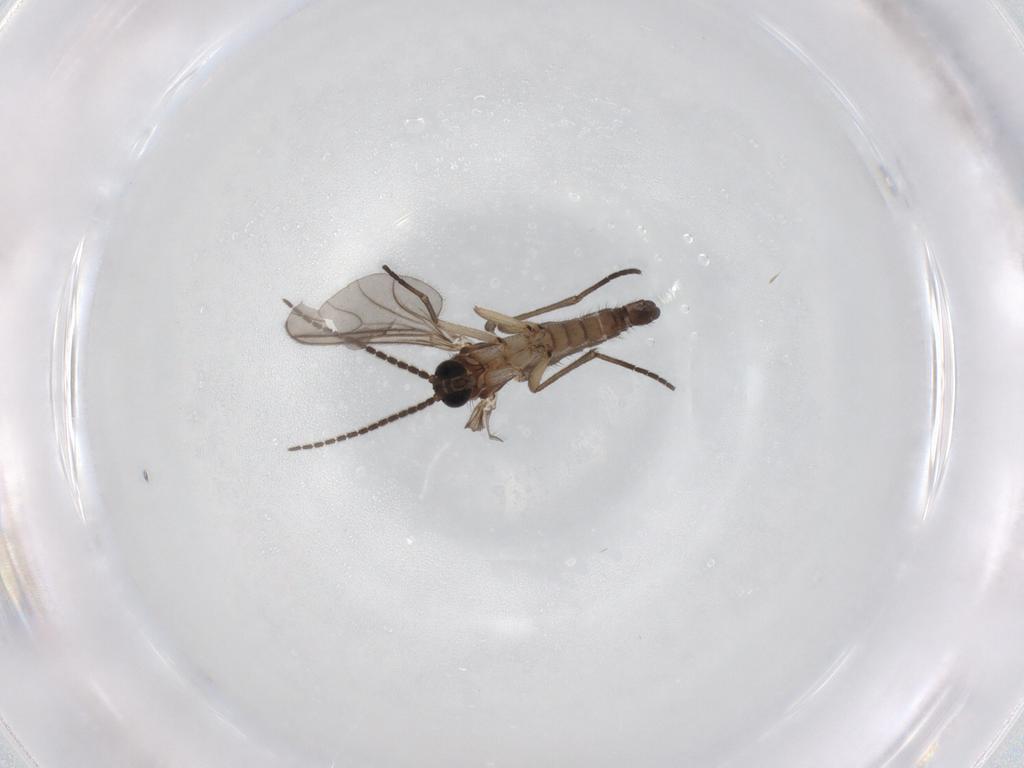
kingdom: Animalia
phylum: Arthropoda
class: Insecta
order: Diptera
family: Sciaridae
